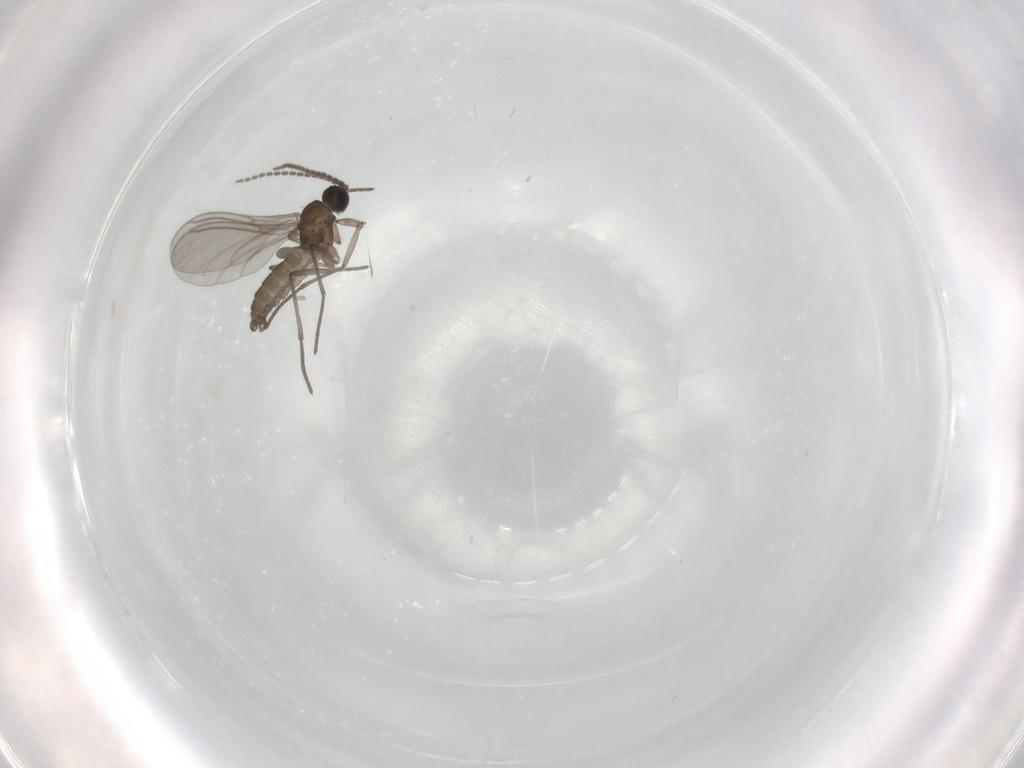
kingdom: Animalia
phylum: Arthropoda
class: Insecta
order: Diptera
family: Sciaridae
